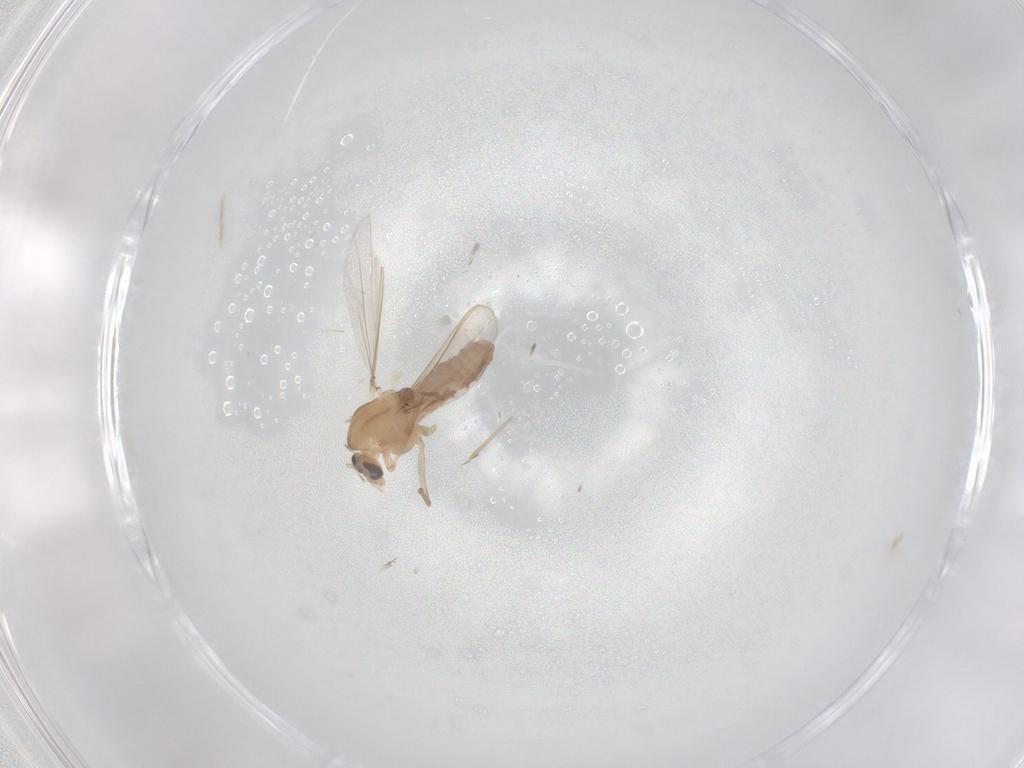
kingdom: Animalia
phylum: Arthropoda
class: Insecta
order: Diptera
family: Chironomidae
